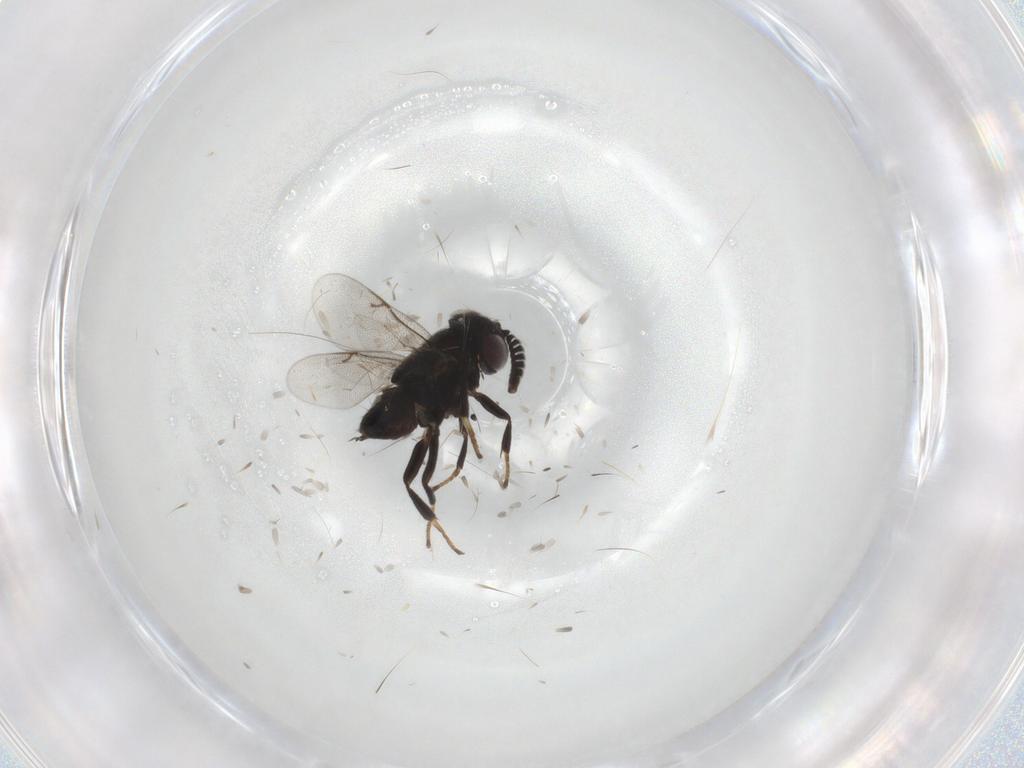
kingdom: Animalia
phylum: Arthropoda
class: Insecta
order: Hymenoptera
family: Encyrtidae
